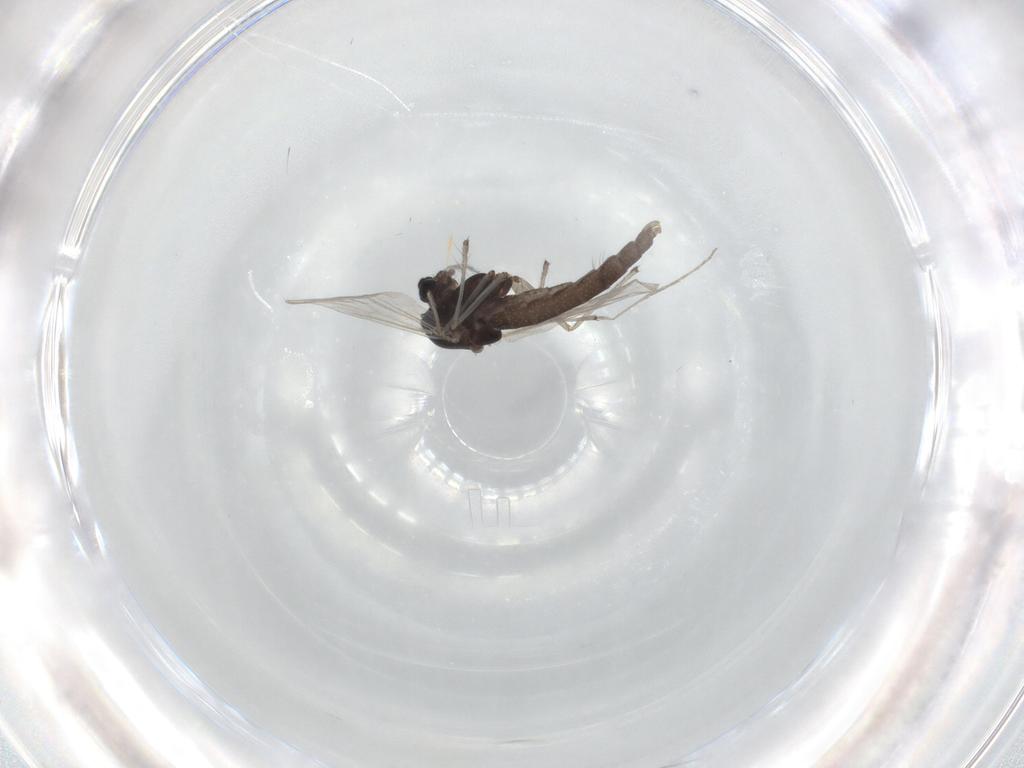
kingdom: Animalia
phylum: Arthropoda
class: Insecta
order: Diptera
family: Chironomidae
